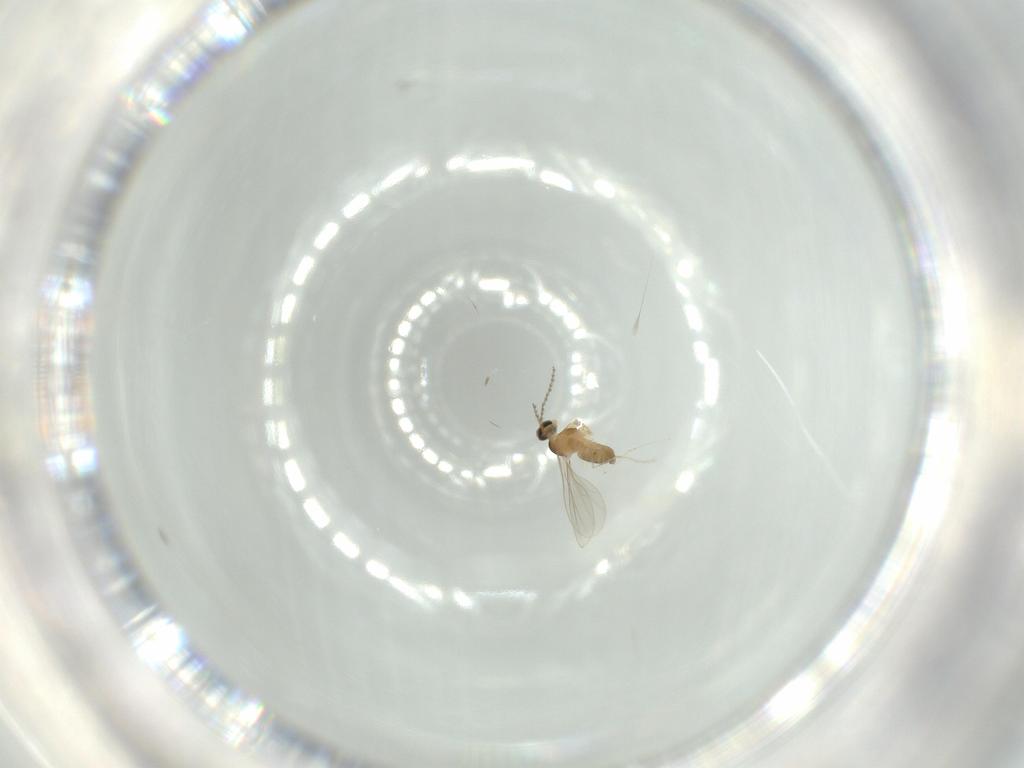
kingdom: Animalia
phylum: Arthropoda
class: Insecta
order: Diptera
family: Cecidomyiidae
